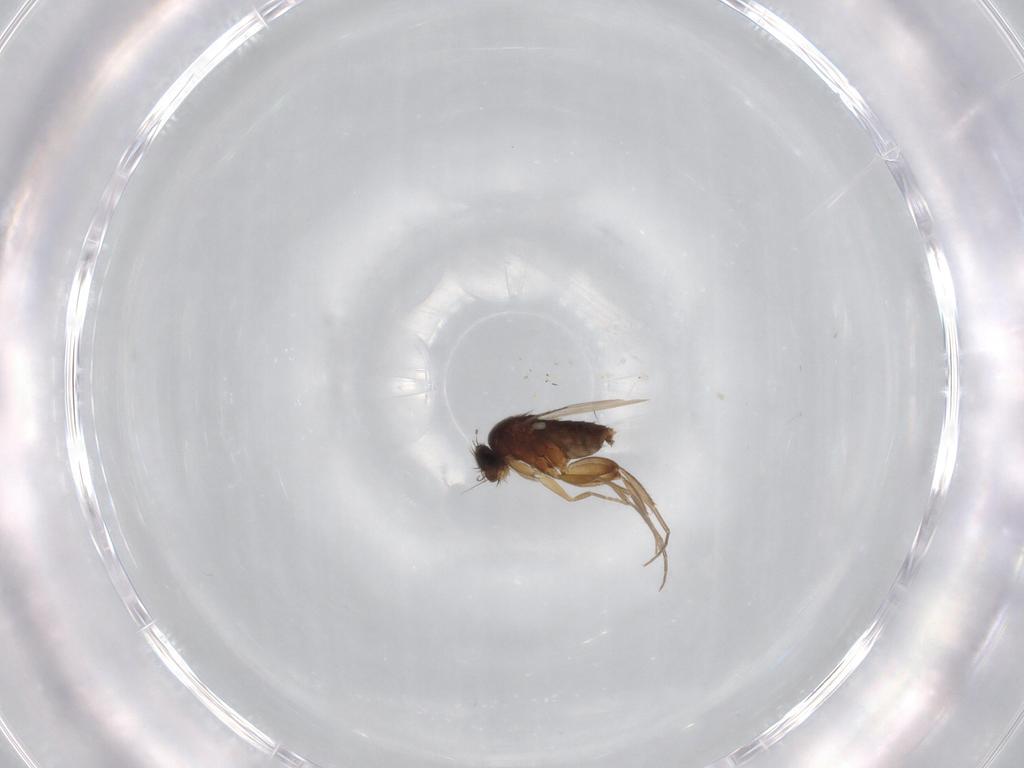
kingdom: Animalia
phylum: Arthropoda
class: Insecta
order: Diptera
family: Phoridae
